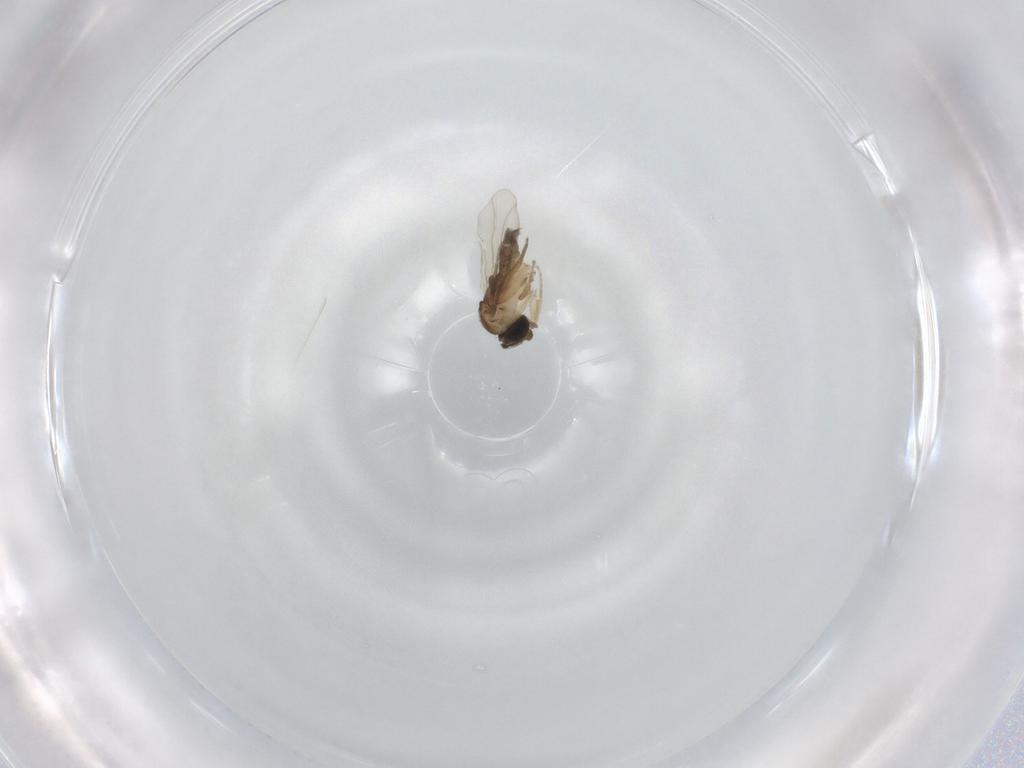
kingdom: Animalia
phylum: Arthropoda
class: Insecta
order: Diptera
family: Phoridae
